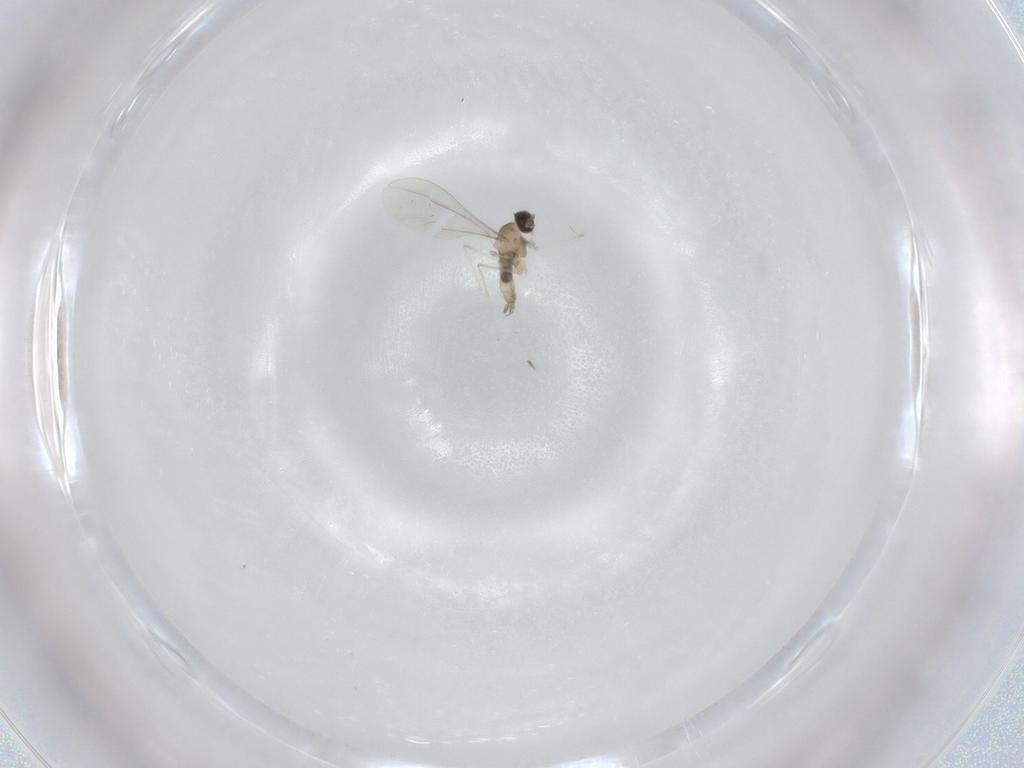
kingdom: Animalia
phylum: Arthropoda
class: Insecta
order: Diptera
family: Cecidomyiidae
